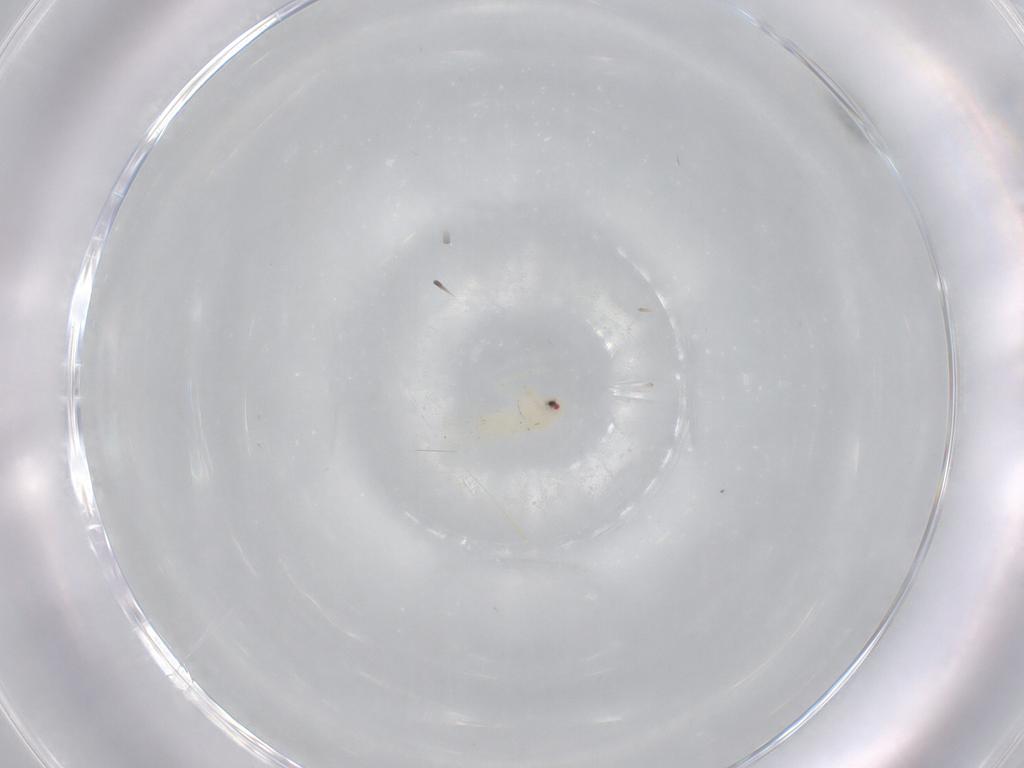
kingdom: Animalia
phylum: Arthropoda
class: Insecta
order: Hemiptera
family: Aleyrodidae
